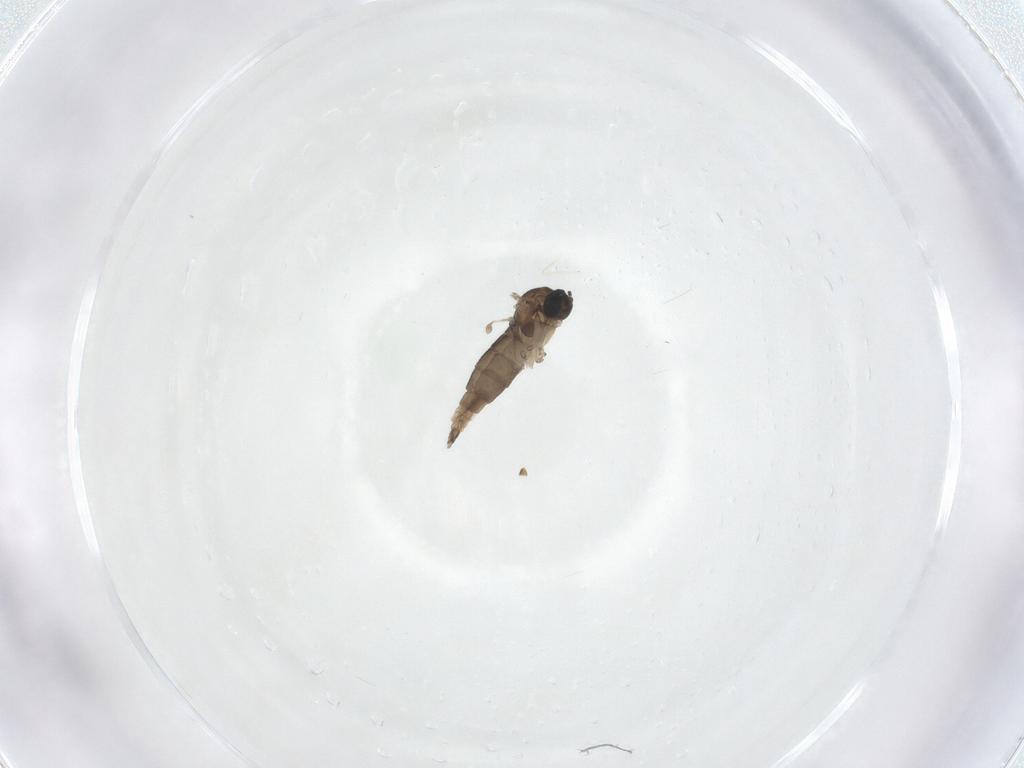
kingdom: Animalia
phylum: Arthropoda
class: Insecta
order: Diptera
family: Sciaridae
